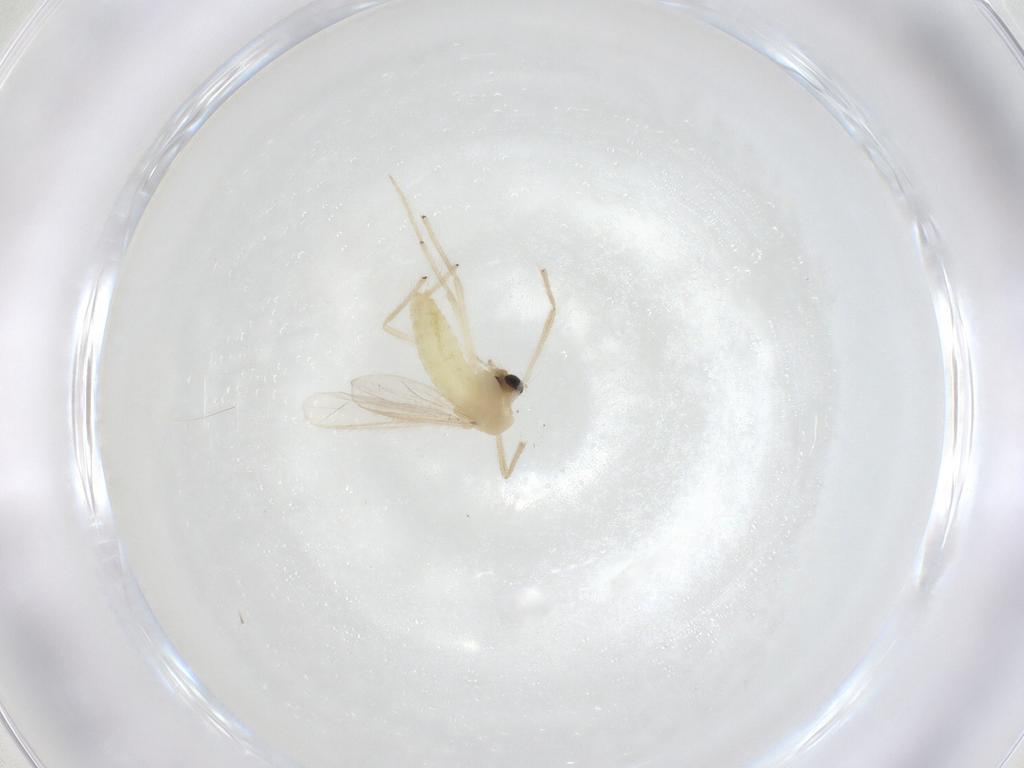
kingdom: Animalia
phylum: Arthropoda
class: Insecta
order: Diptera
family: Chironomidae
